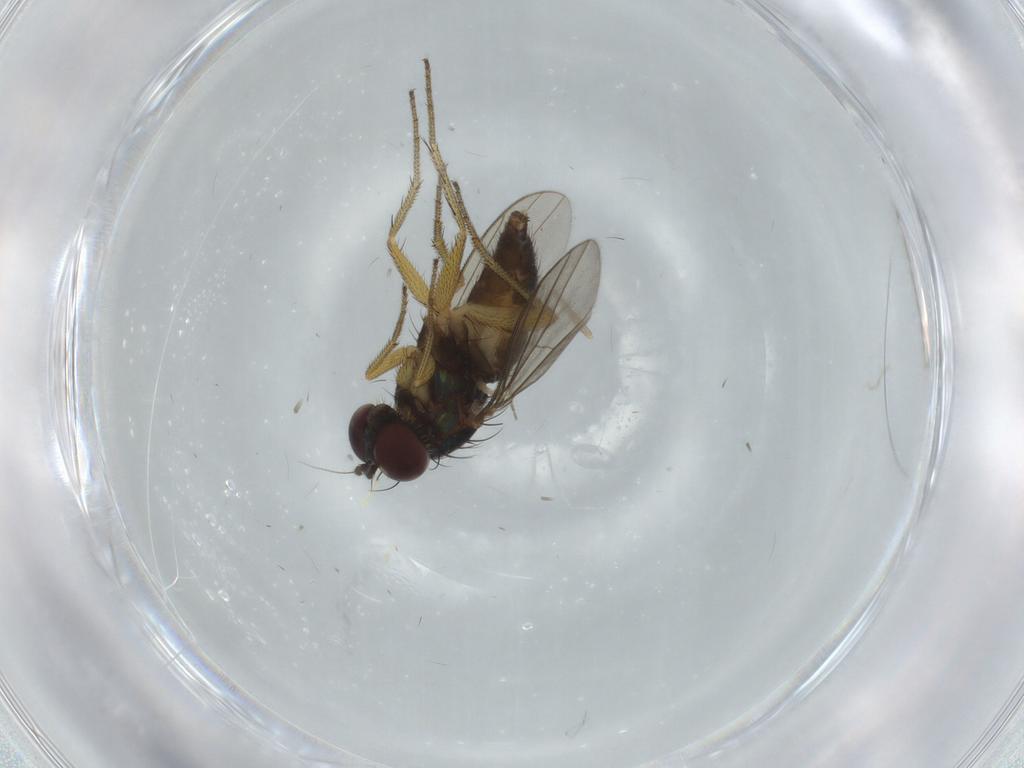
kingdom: Animalia
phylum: Arthropoda
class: Insecta
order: Diptera
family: Dolichopodidae
